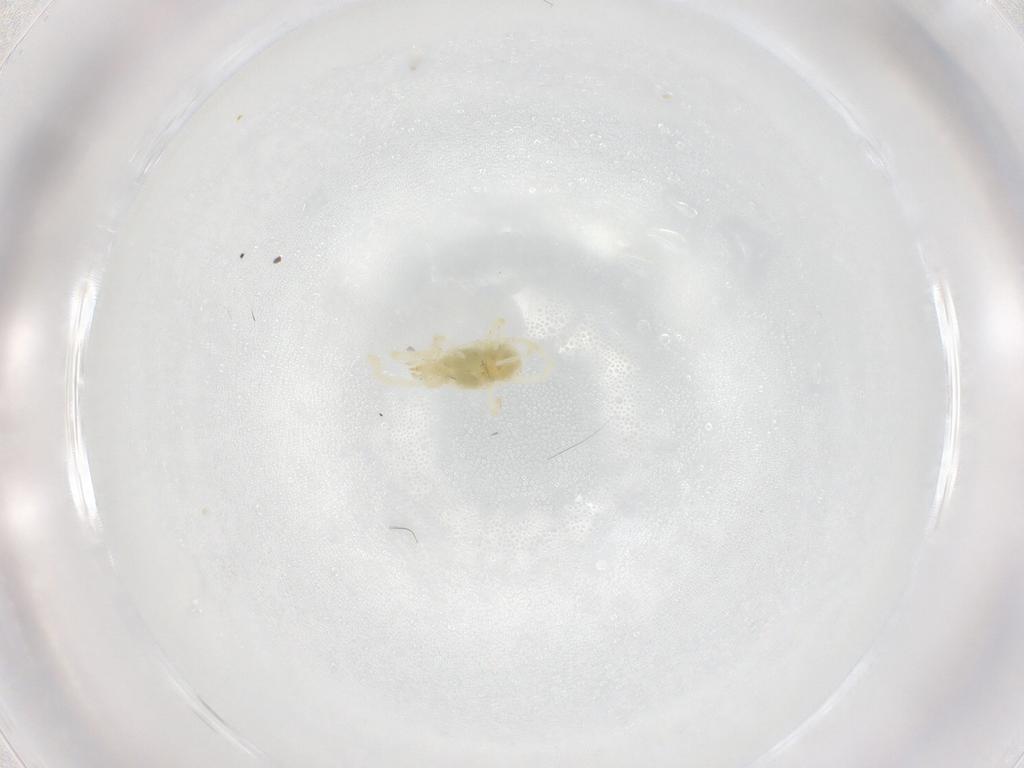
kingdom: Animalia
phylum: Arthropoda
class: Arachnida
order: Trombidiformes
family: Erythraeidae
